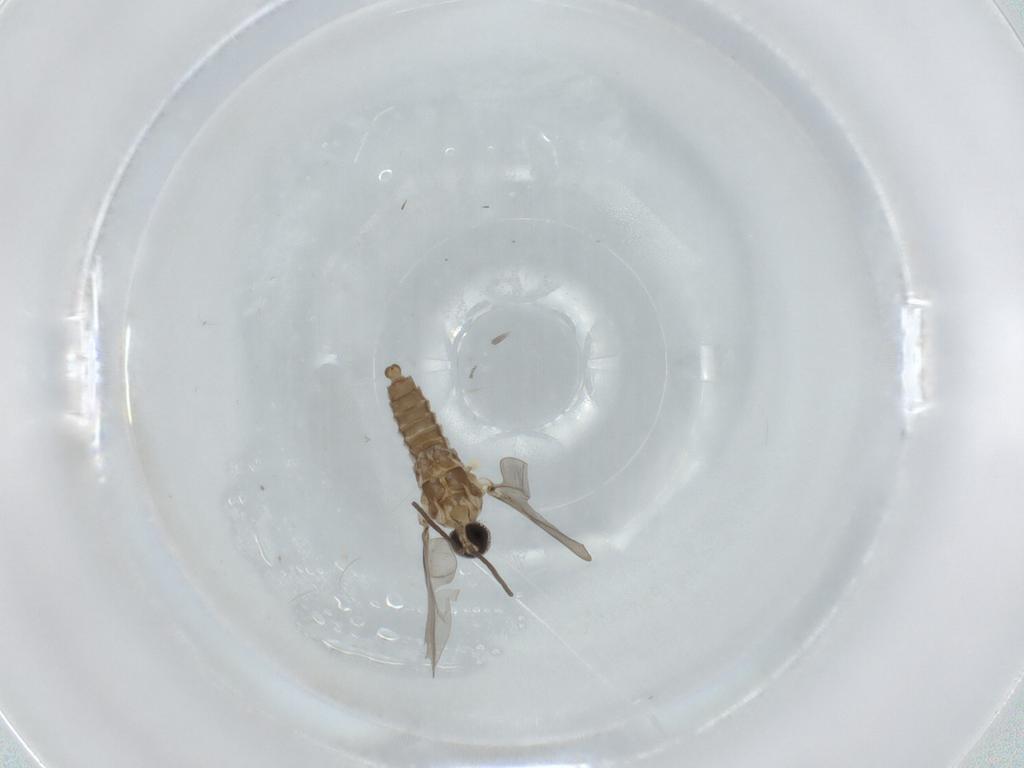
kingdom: Animalia
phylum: Arthropoda
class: Insecta
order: Diptera
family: Cecidomyiidae
